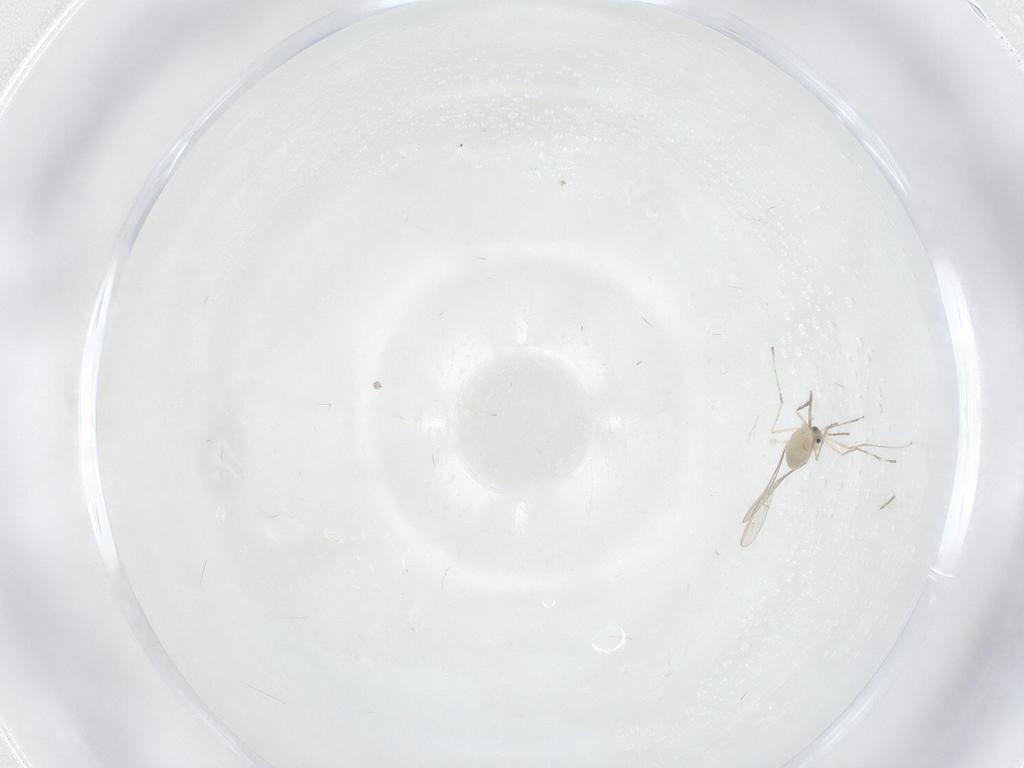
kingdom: Animalia
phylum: Arthropoda
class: Insecta
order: Diptera
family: Cecidomyiidae
